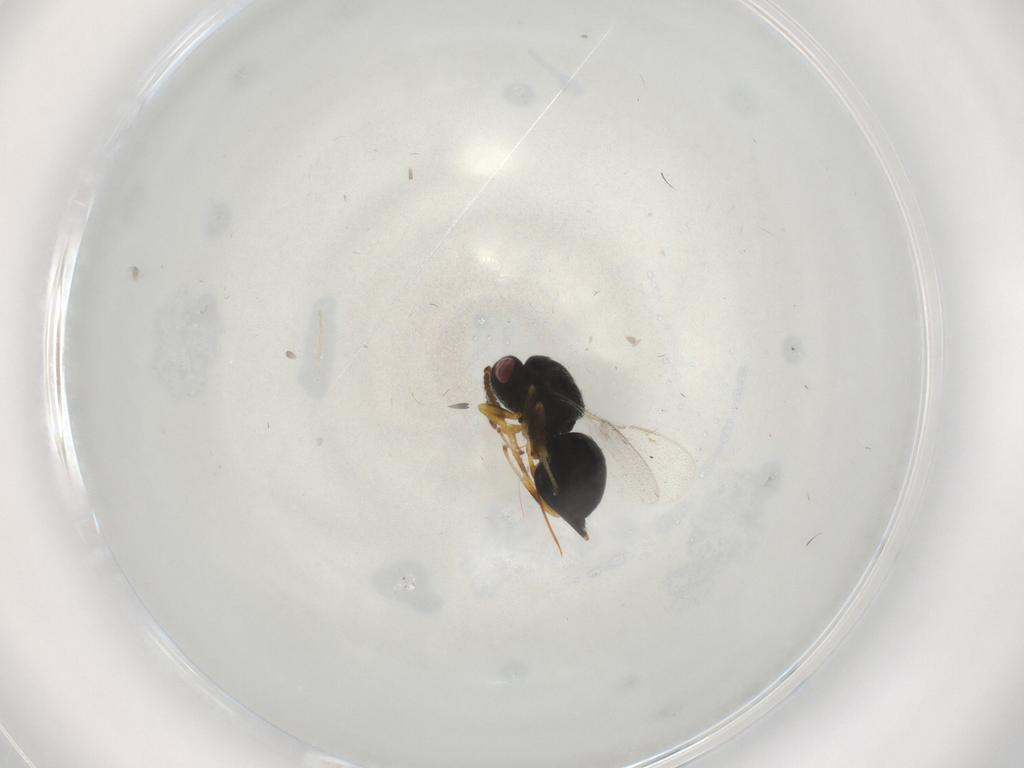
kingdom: Animalia
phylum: Arthropoda
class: Insecta
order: Hymenoptera
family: Eurytomidae
